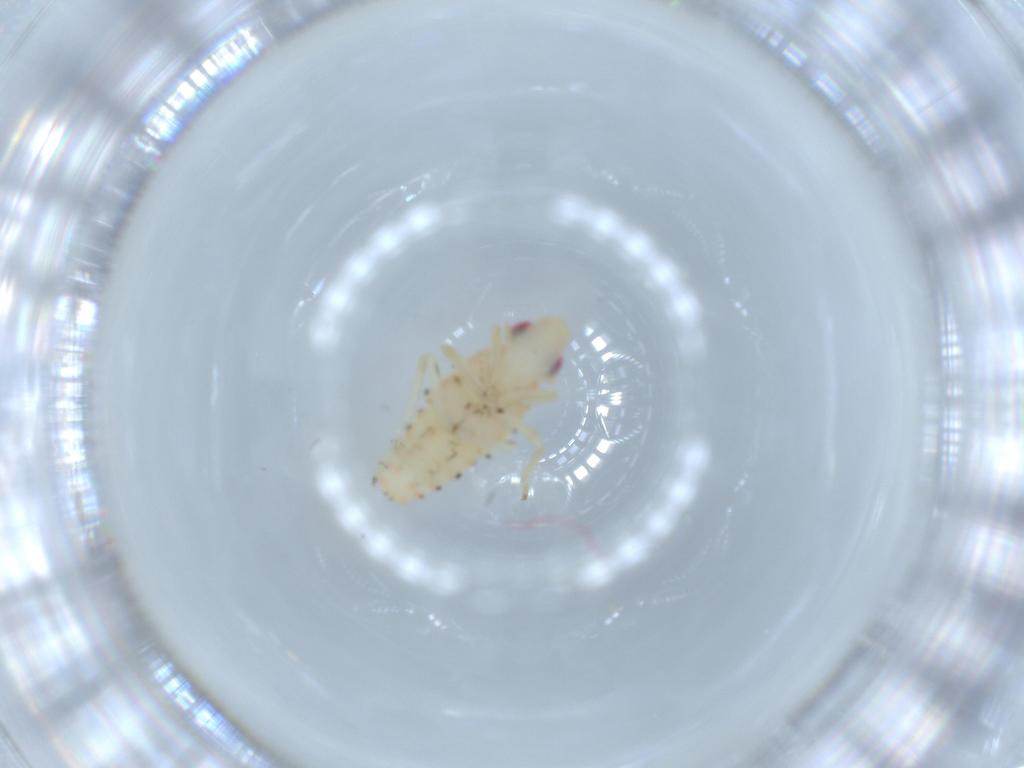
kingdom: Animalia
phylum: Arthropoda
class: Insecta
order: Hemiptera
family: Tropiduchidae
